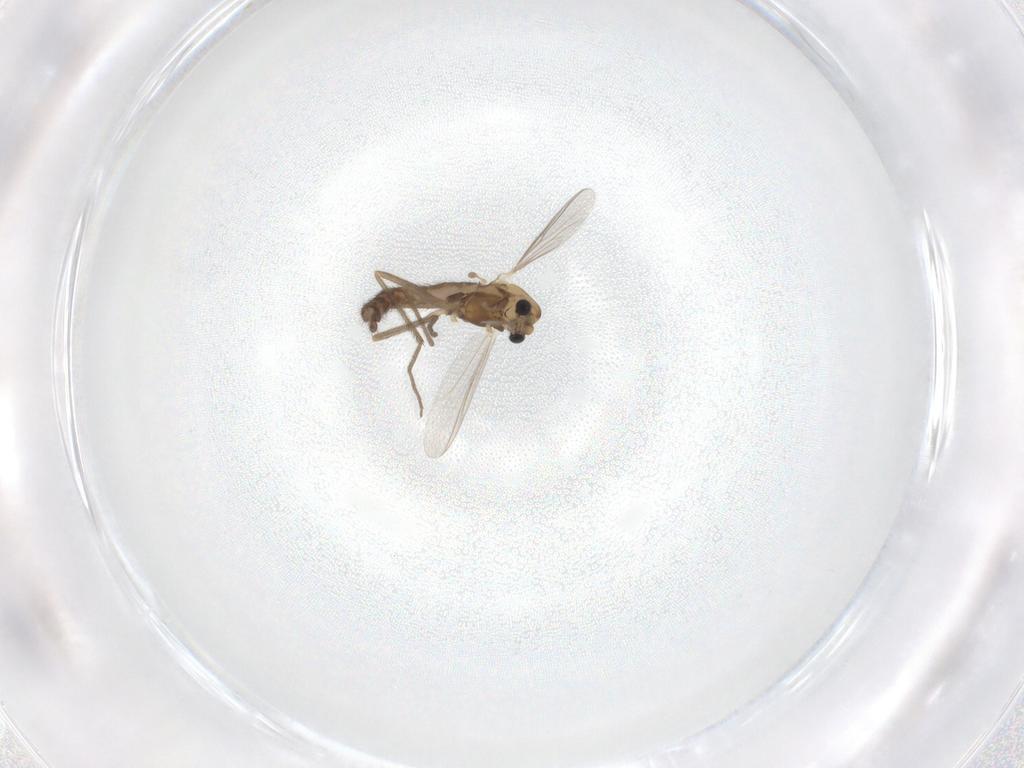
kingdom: Animalia
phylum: Arthropoda
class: Insecta
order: Diptera
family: Chironomidae
